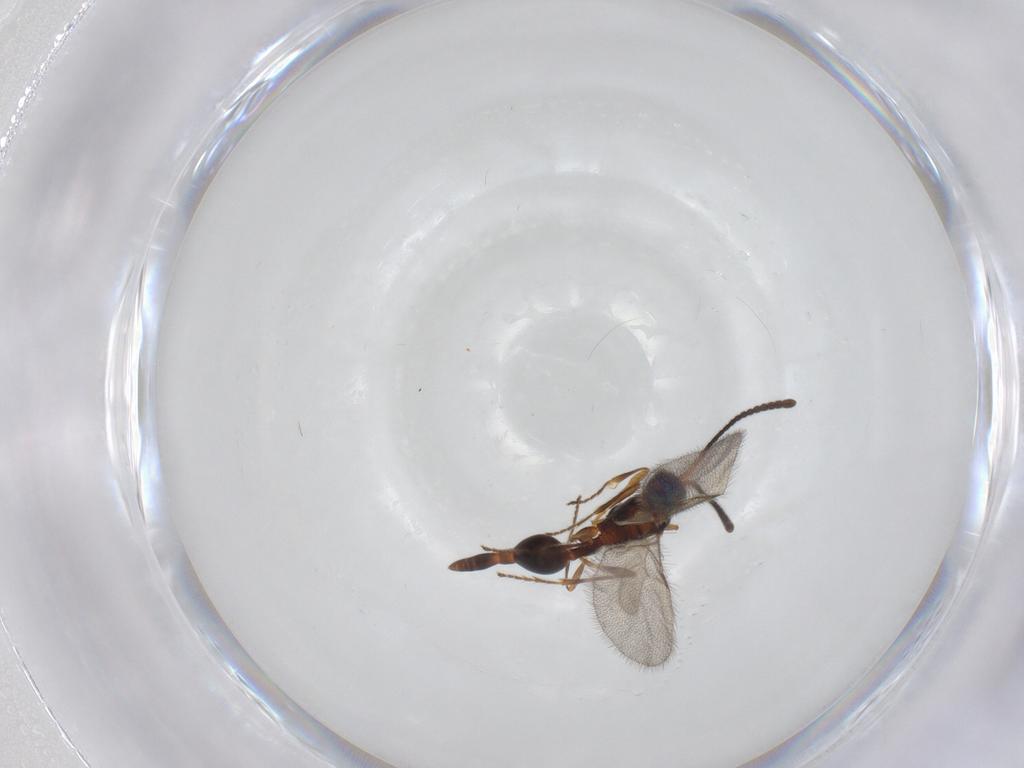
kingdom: Animalia
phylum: Arthropoda
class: Insecta
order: Hymenoptera
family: Diapriidae
